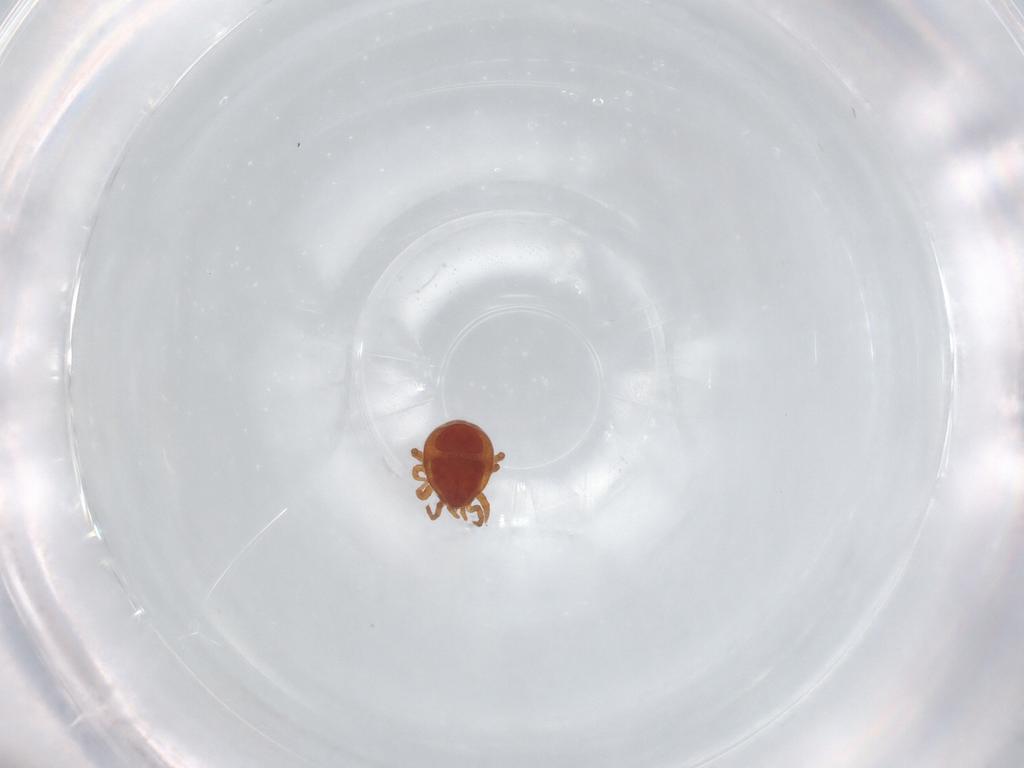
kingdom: Animalia
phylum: Arthropoda
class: Arachnida
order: Mesostigmata
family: Parasitidae
